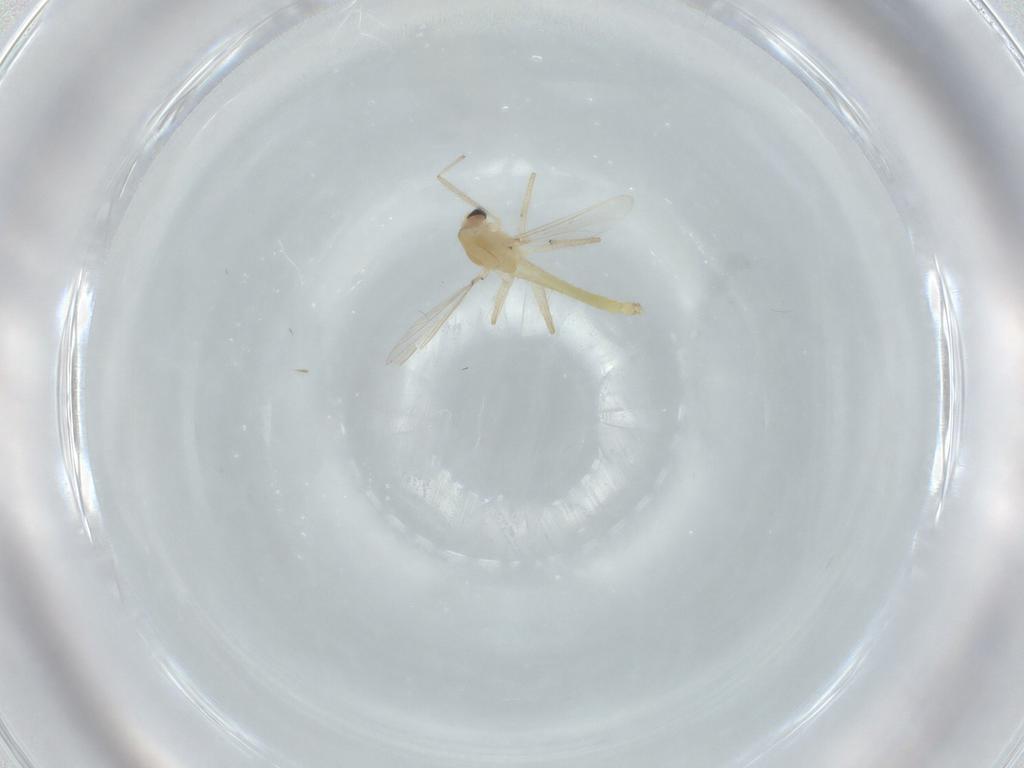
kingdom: Animalia
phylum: Arthropoda
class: Insecta
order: Diptera
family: Chironomidae
